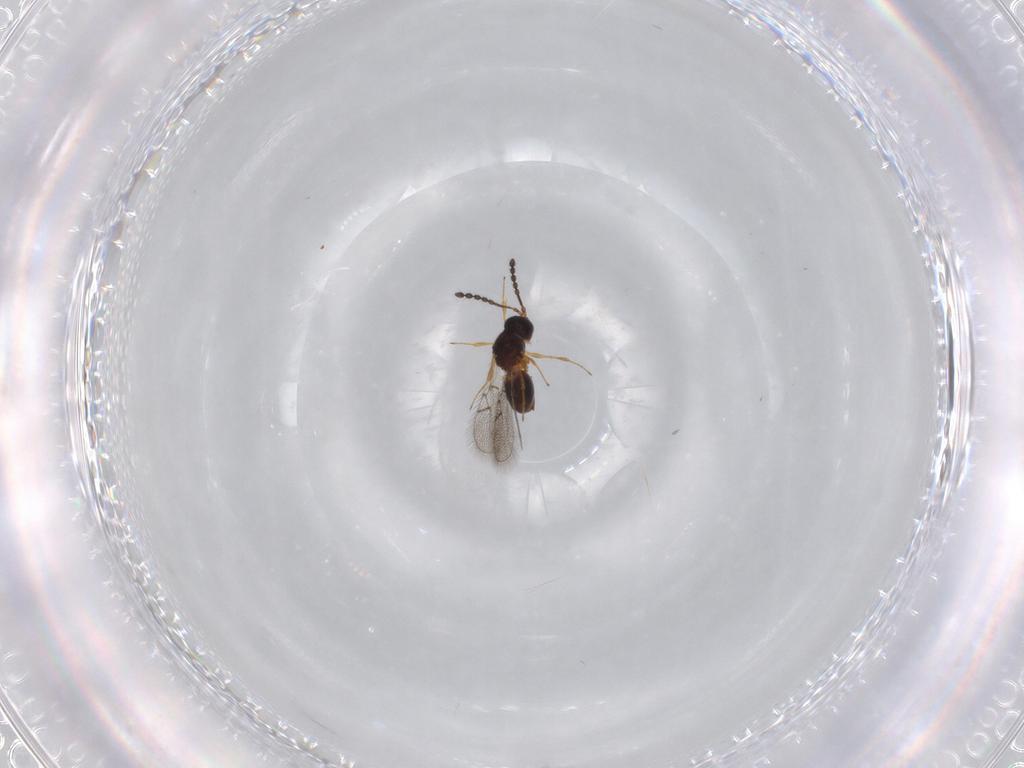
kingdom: Animalia
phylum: Arthropoda
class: Insecta
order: Hymenoptera
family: Figitidae
